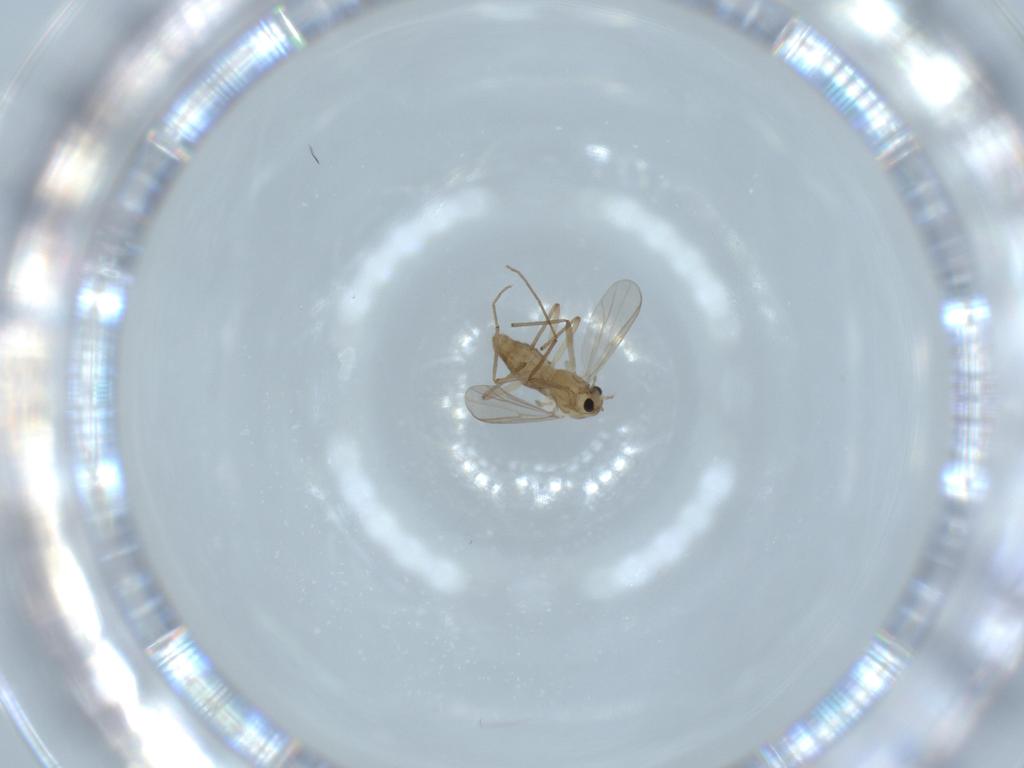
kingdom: Animalia
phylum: Arthropoda
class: Insecta
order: Diptera
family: Chironomidae
